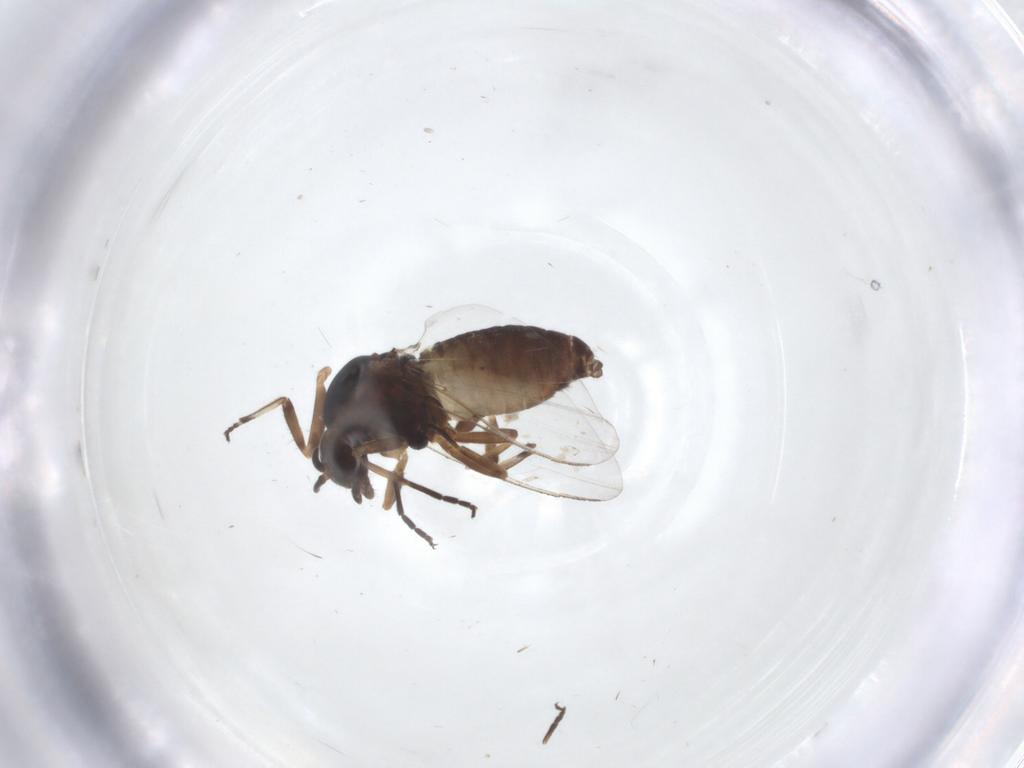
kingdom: Animalia
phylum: Arthropoda
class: Insecta
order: Diptera
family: Simuliidae
